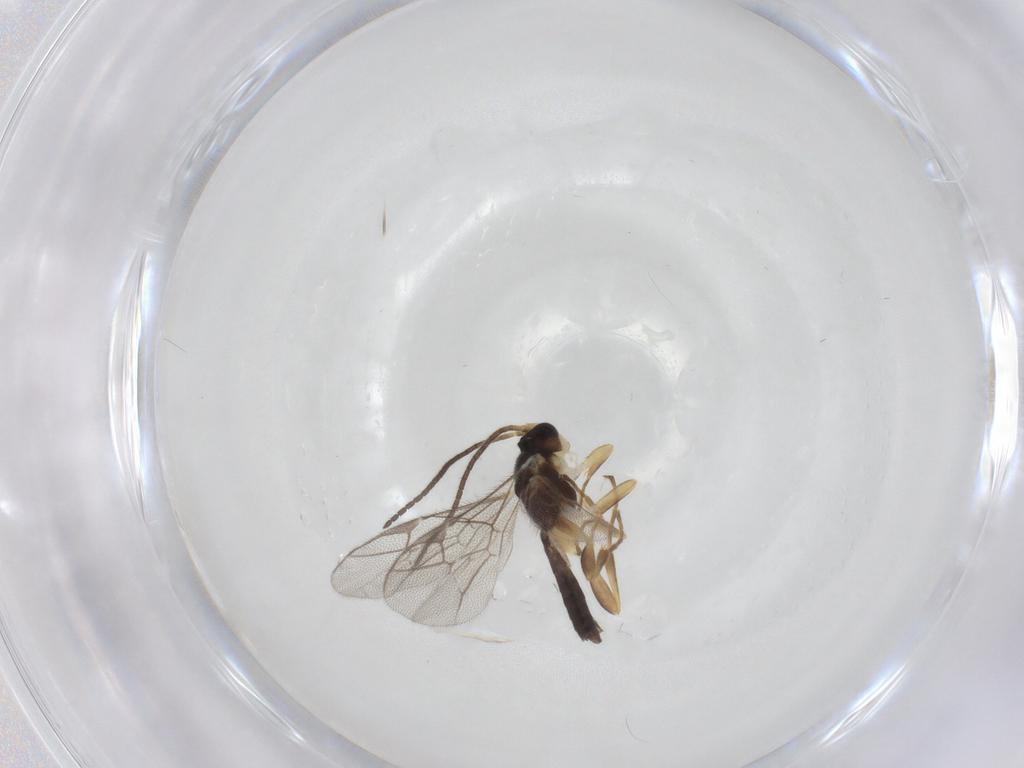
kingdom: Animalia
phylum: Arthropoda
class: Insecta
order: Hymenoptera
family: Ichneumonidae
